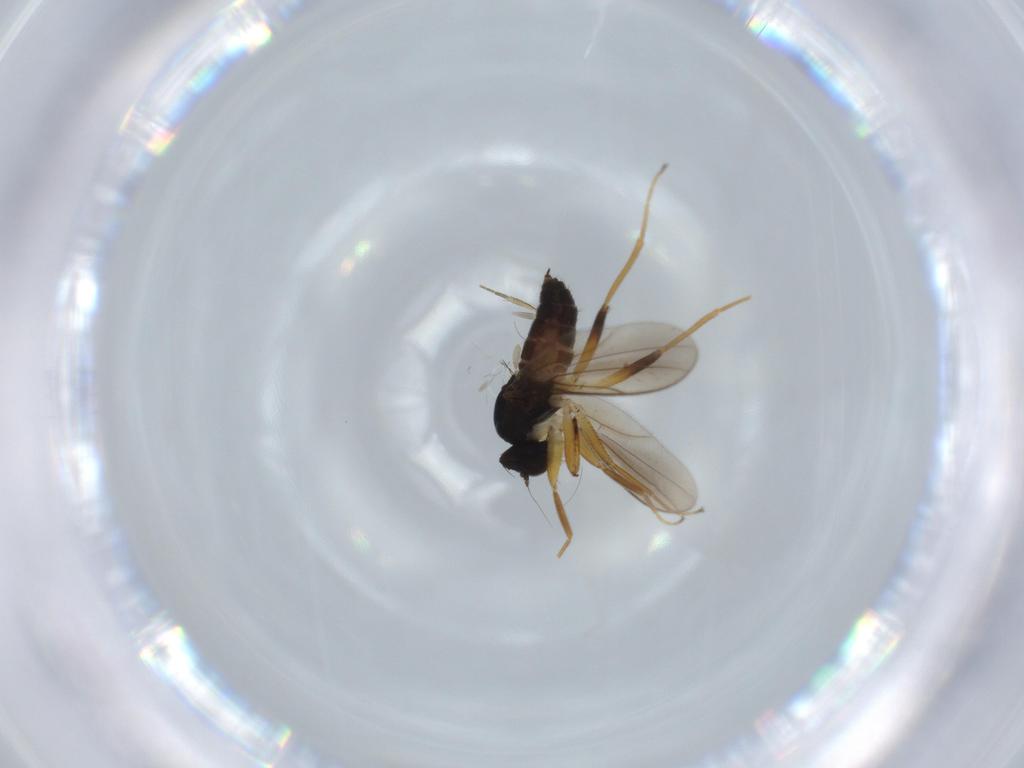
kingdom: Animalia
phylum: Arthropoda
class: Insecta
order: Diptera
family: Hybotidae
